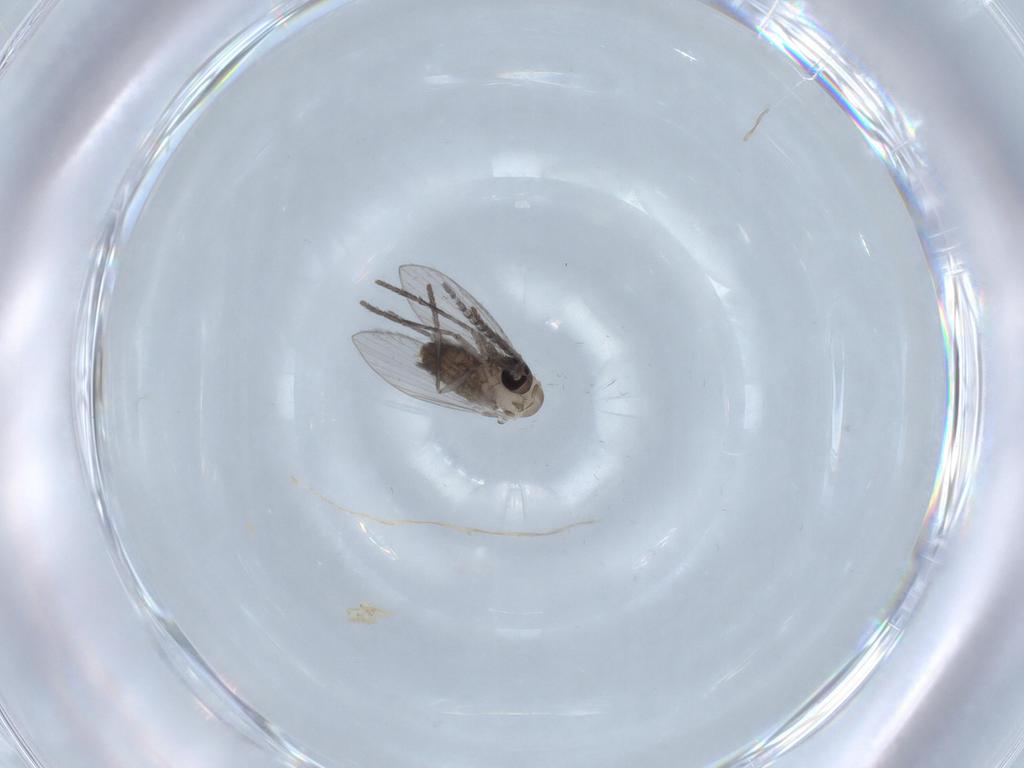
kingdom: Animalia
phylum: Arthropoda
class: Insecta
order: Diptera
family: Psychodidae
